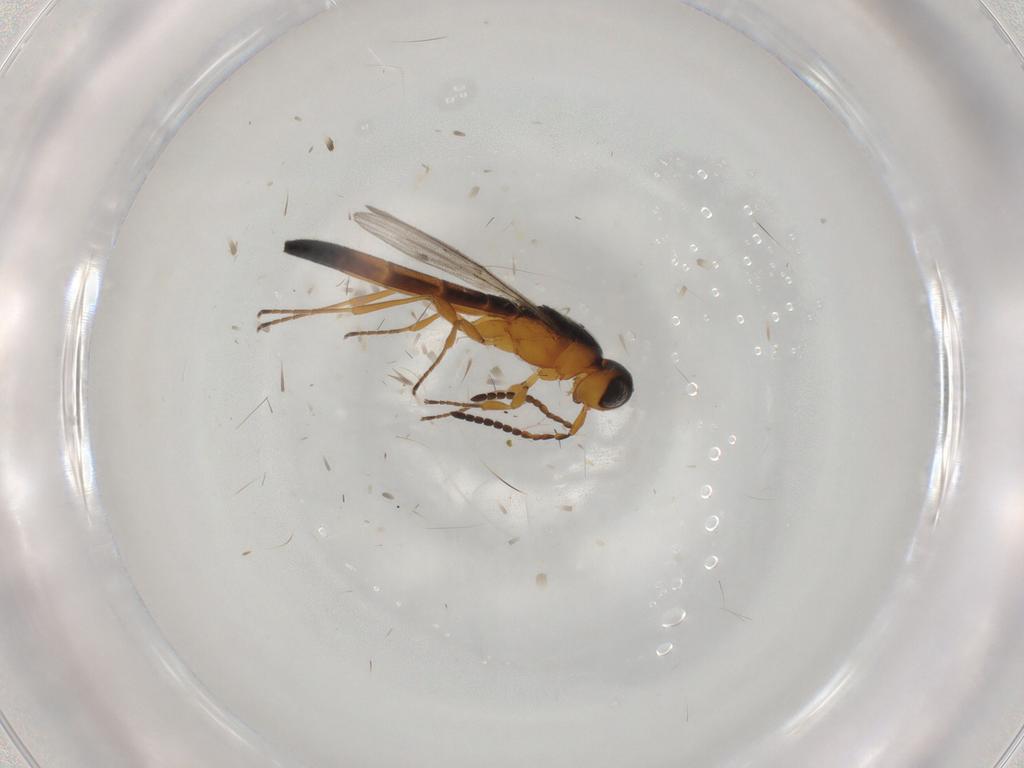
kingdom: Animalia
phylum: Arthropoda
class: Insecta
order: Hymenoptera
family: Scelionidae
